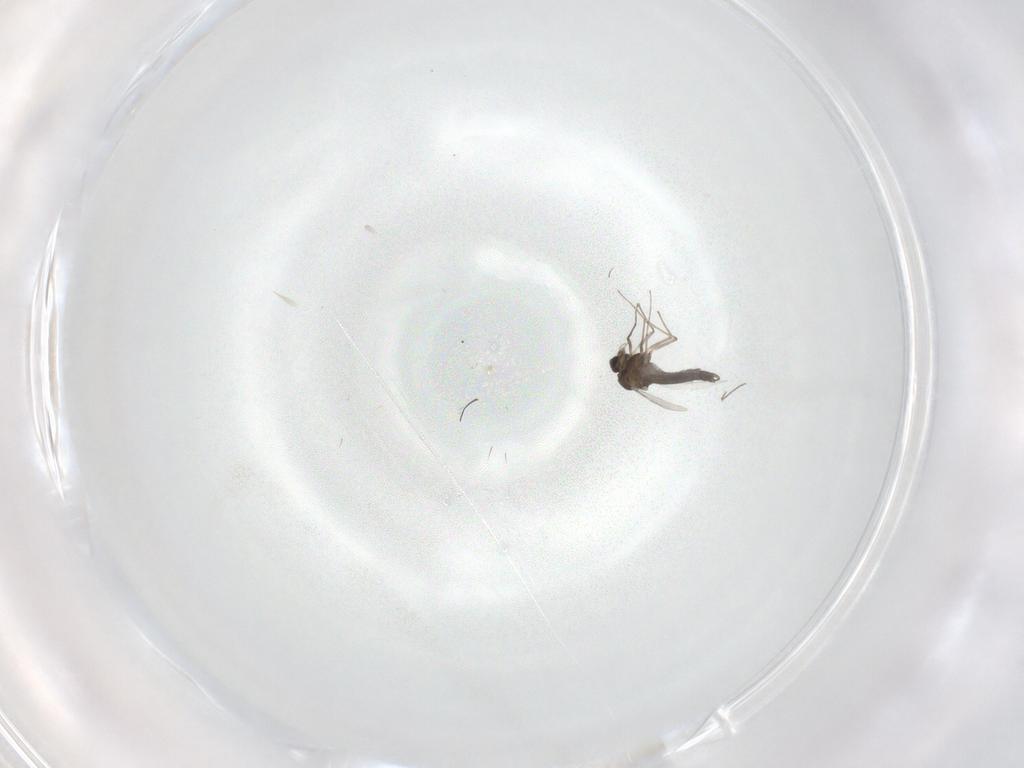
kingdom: Animalia
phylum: Arthropoda
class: Insecta
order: Diptera
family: Chironomidae
